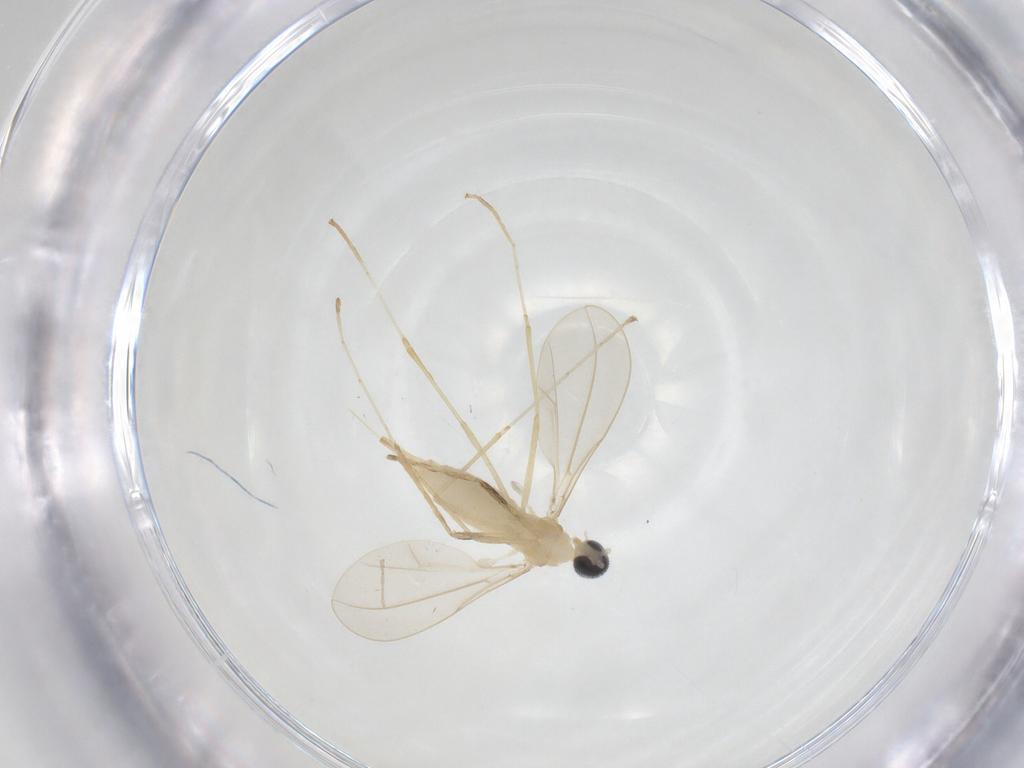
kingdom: Animalia
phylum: Arthropoda
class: Insecta
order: Diptera
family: Cecidomyiidae
